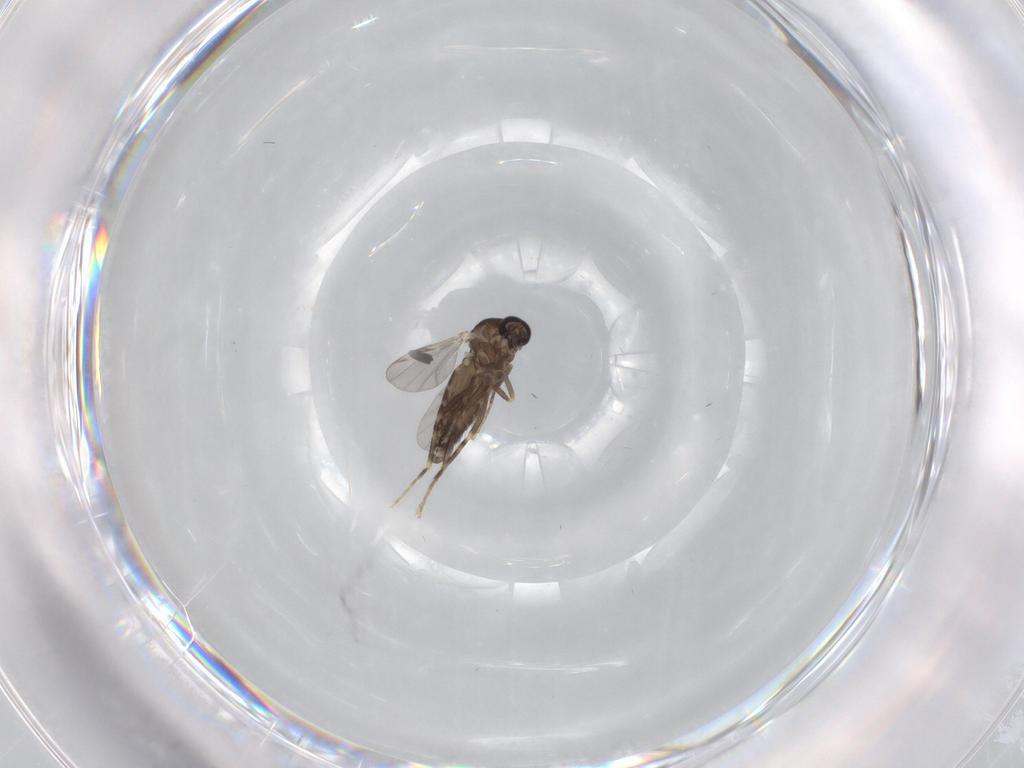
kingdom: Animalia
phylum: Arthropoda
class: Insecta
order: Diptera
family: Ceratopogonidae
